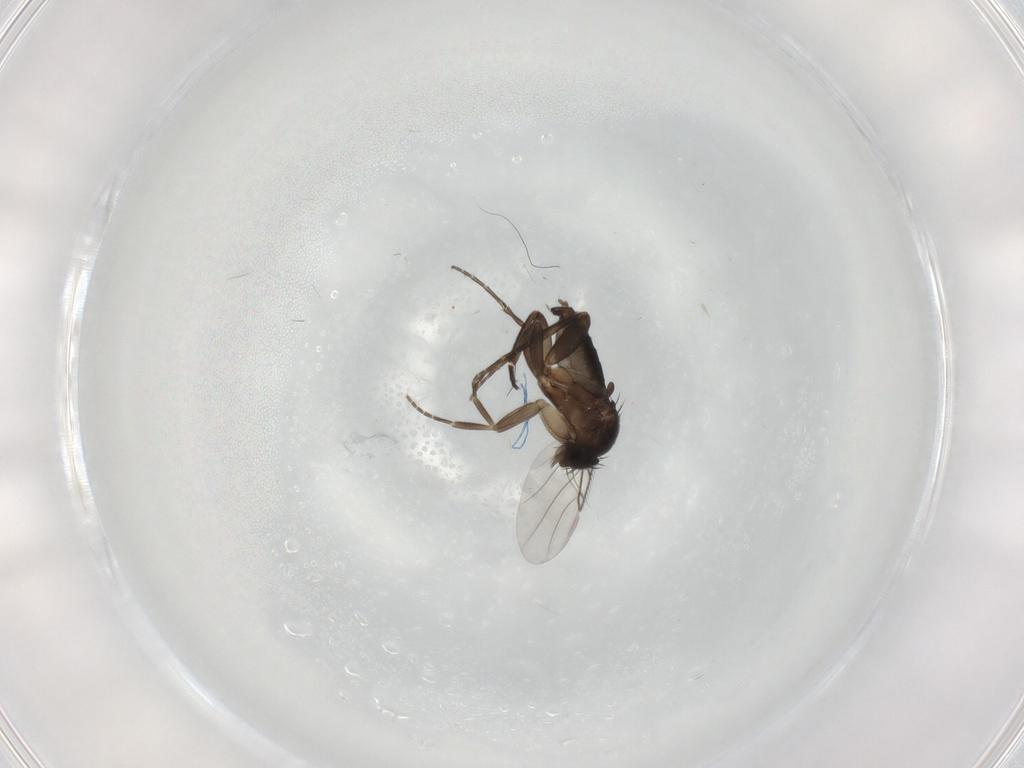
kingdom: Animalia
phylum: Arthropoda
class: Insecta
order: Diptera
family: Phoridae
